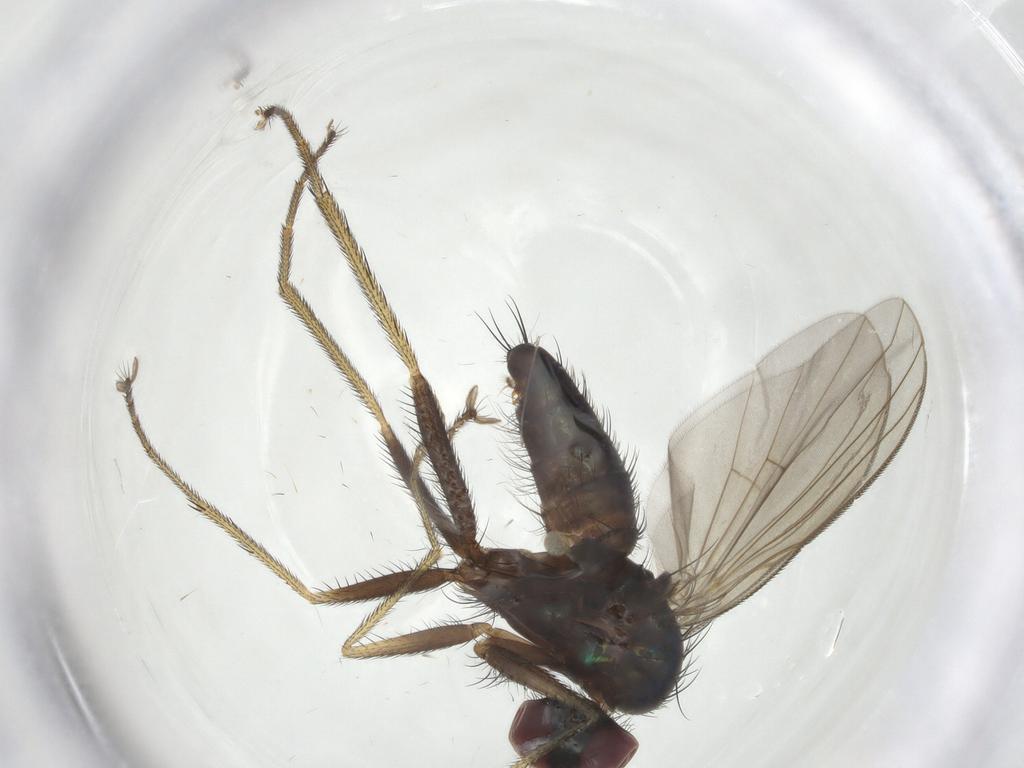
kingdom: Animalia
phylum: Arthropoda
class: Insecta
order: Diptera
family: Dolichopodidae
